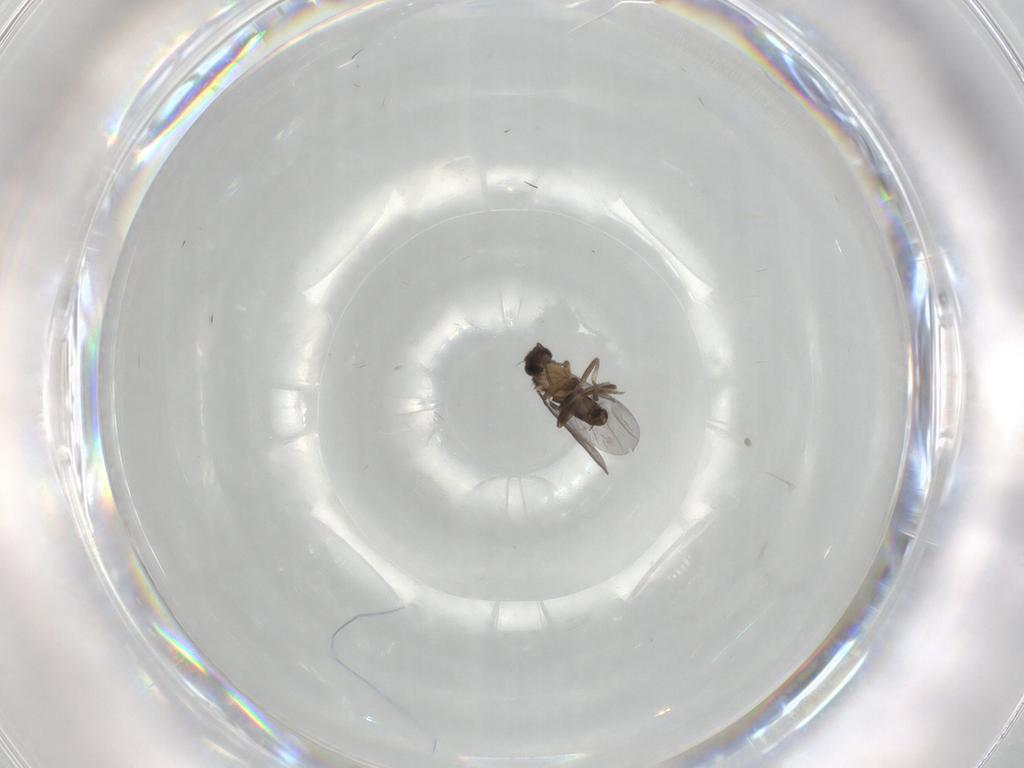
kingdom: Animalia
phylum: Arthropoda
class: Insecta
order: Diptera
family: Phoridae
